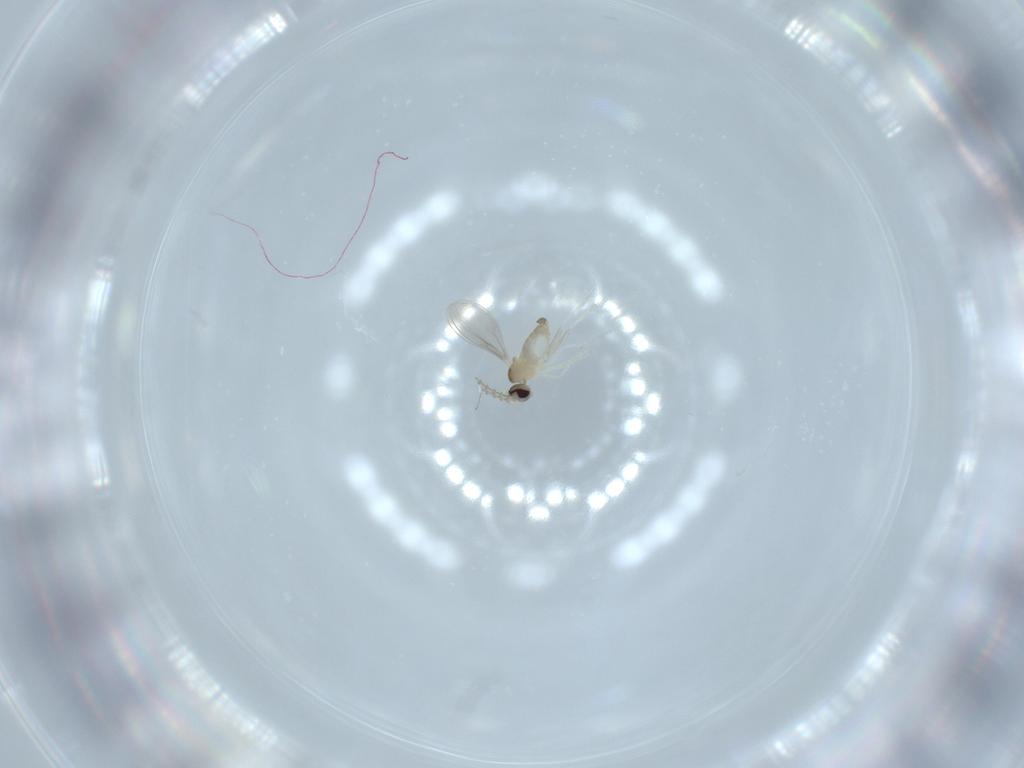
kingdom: Animalia
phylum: Arthropoda
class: Insecta
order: Diptera
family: Cecidomyiidae
